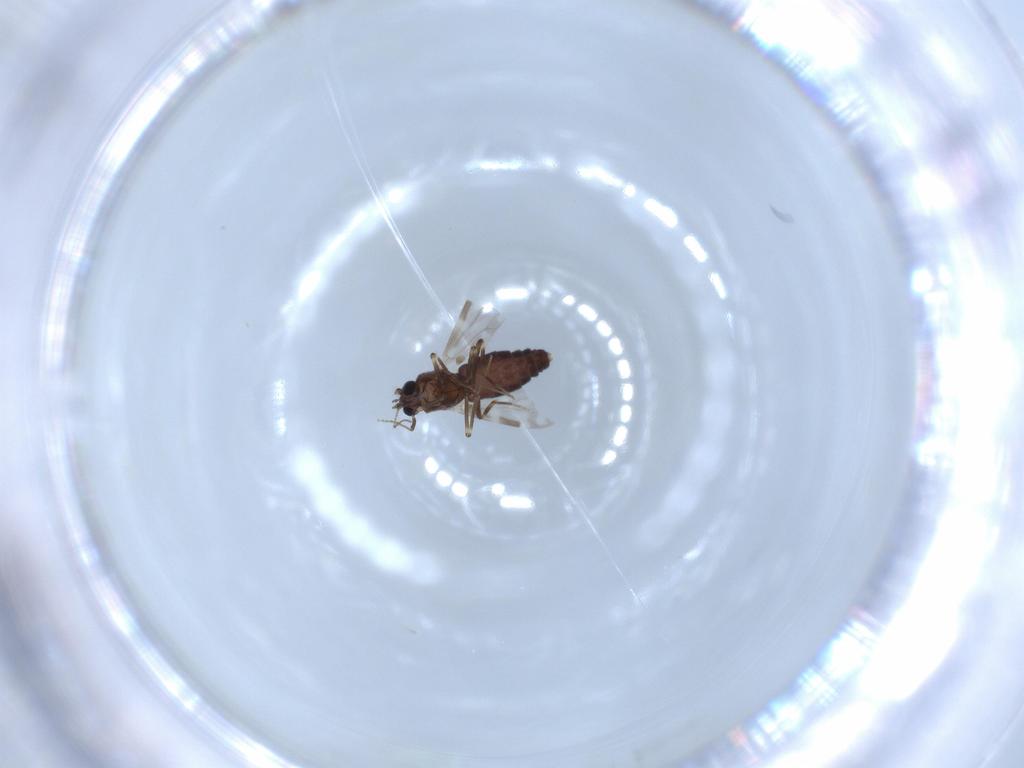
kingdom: Animalia
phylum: Arthropoda
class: Insecta
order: Diptera
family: Ceratopogonidae
